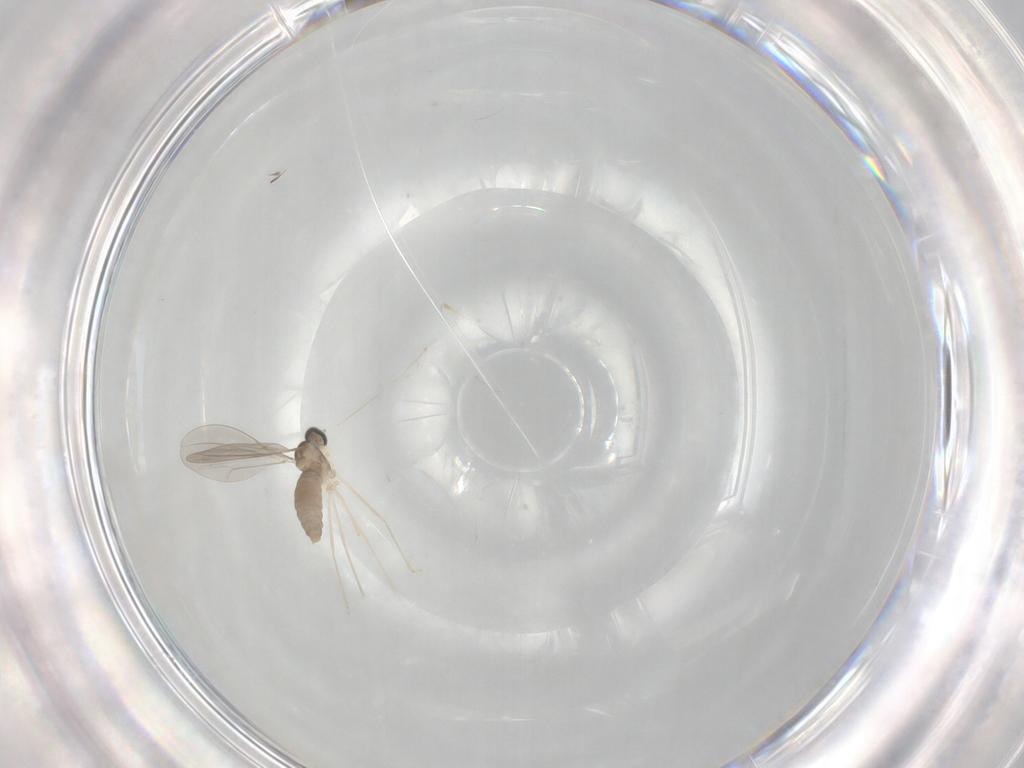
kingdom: Animalia
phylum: Arthropoda
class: Insecta
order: Diptera
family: Cecidomyiidae
